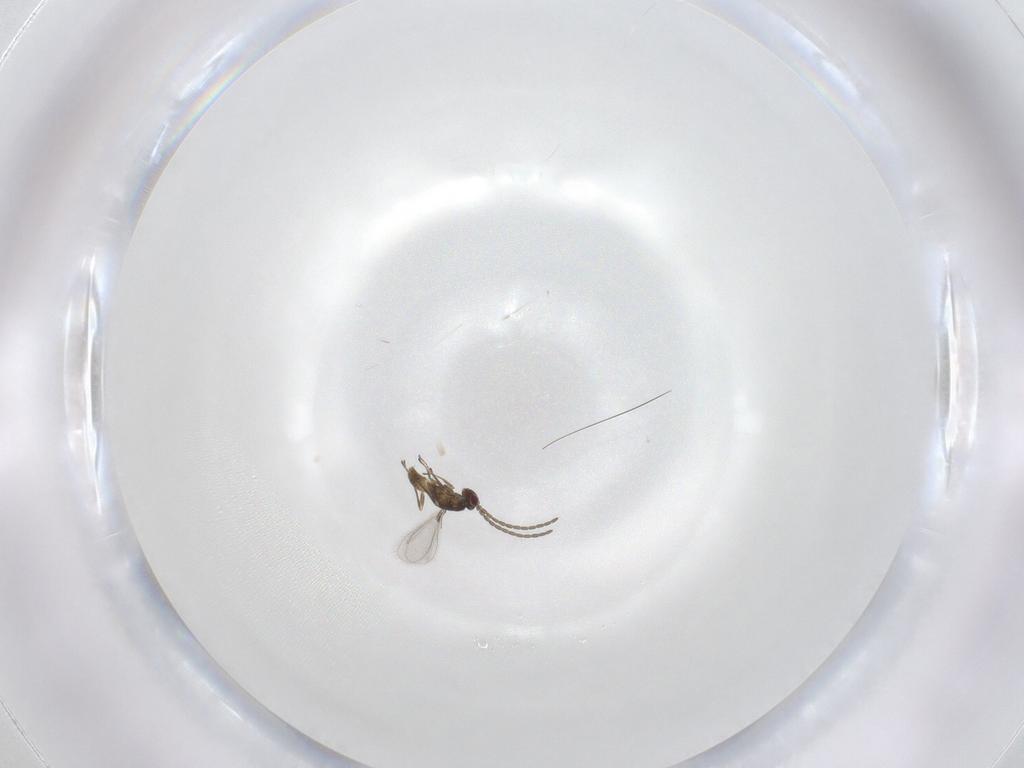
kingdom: Animalia
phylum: Arthropoda
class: Insecta
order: Hymenoptera
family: Mymaridae
